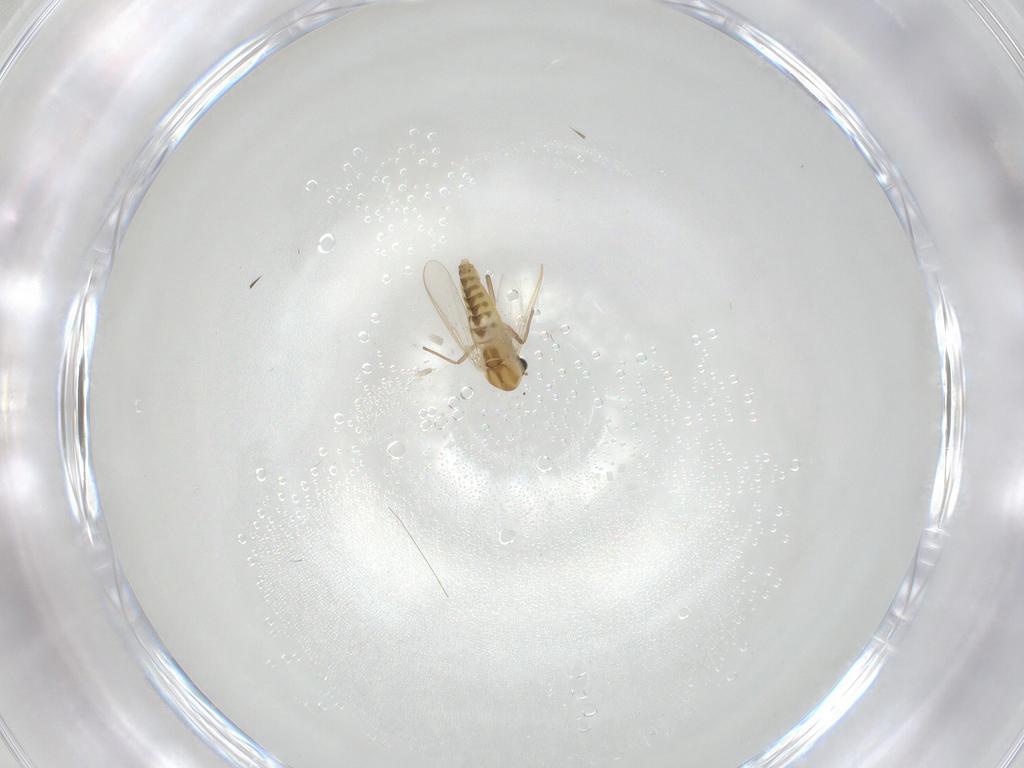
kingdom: Animalia
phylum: Arthropoda
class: Insecta
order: Diptera
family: Chironomidae
